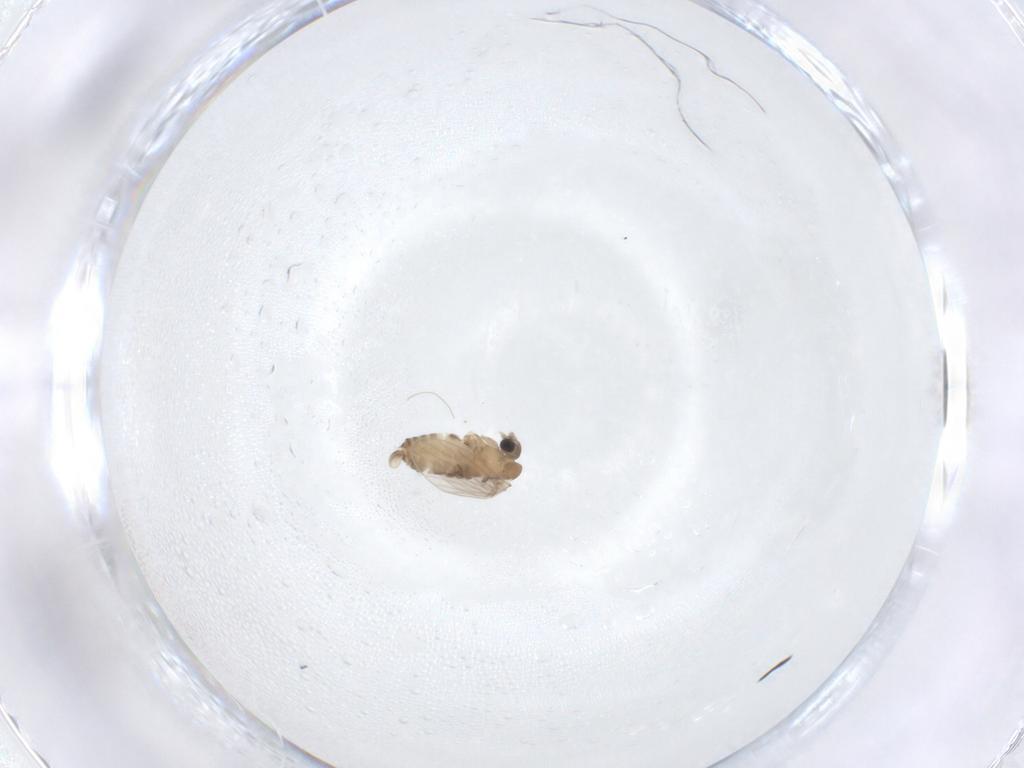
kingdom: Animalia
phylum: Arthropoda
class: Insecta
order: Diptera
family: Psychodidae
